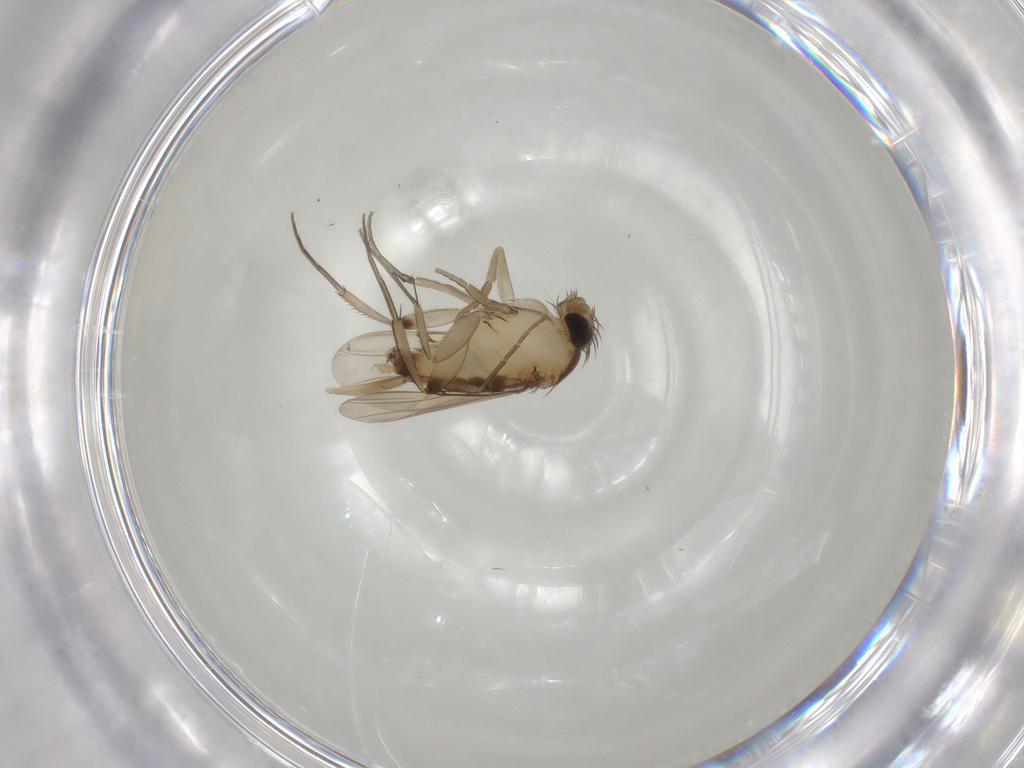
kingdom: Animalia
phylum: Arthropoda
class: Insecta
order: Diptera
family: Phoridae
